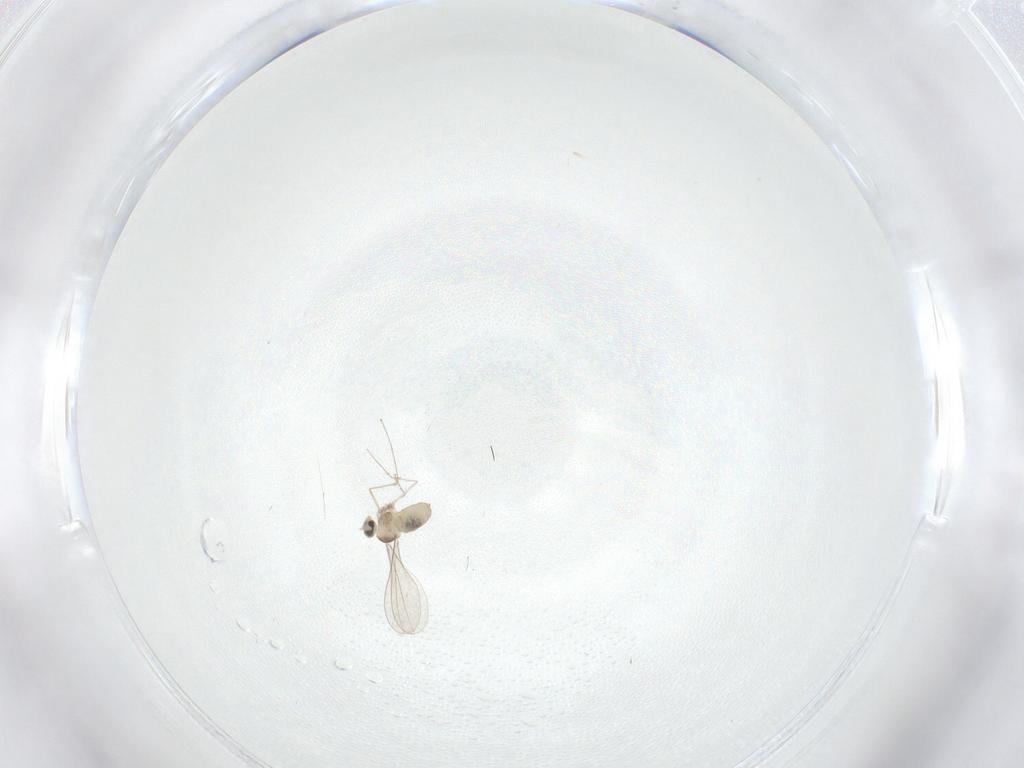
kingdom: Animalia
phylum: Arthropoda
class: Insecta
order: Diptera
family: Cecidomyiidae
